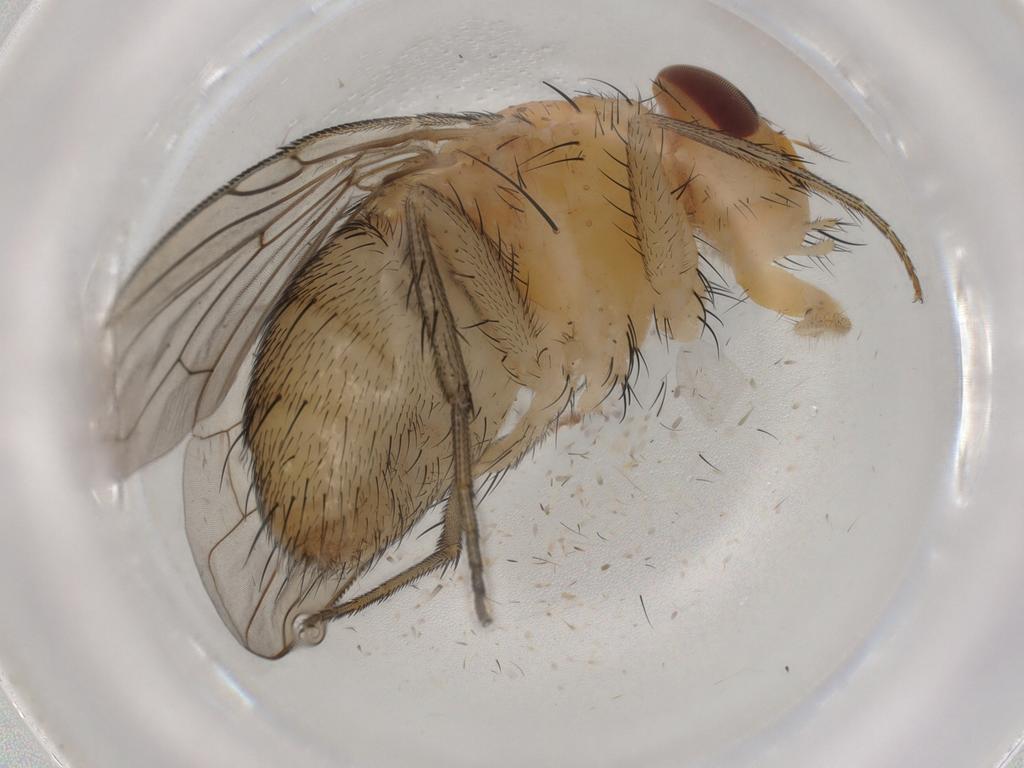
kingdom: Animalia
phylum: Arthropoda
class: Insecta
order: Diptera
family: Calliphoridae
